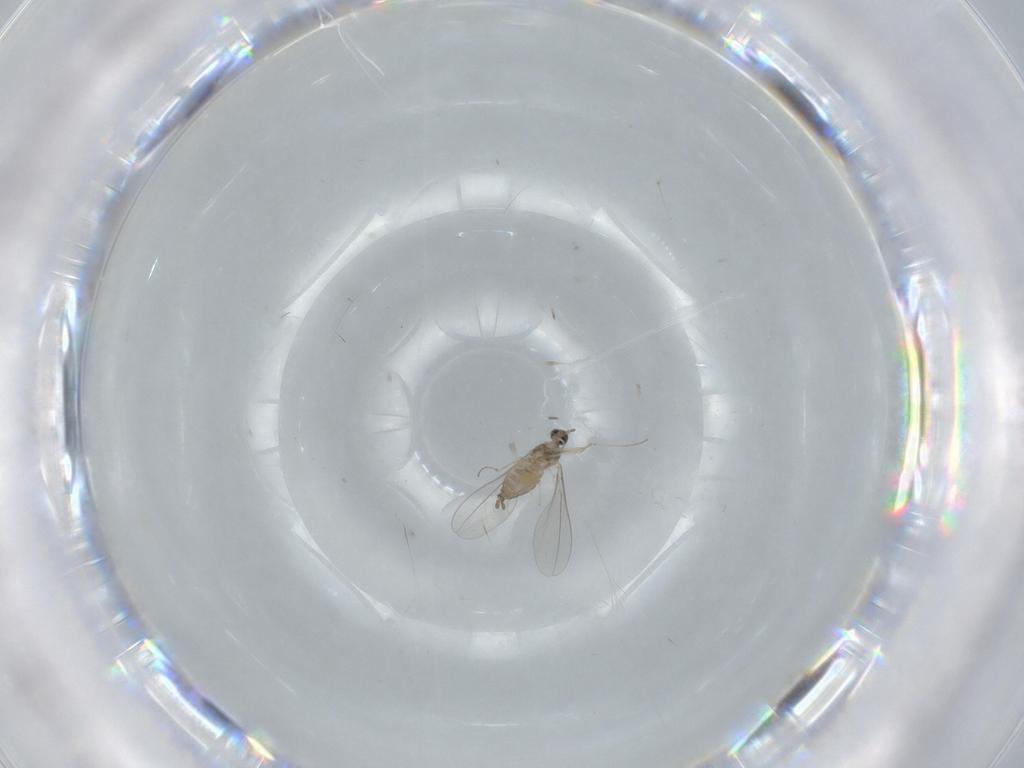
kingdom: Animalia
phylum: Arthropoda
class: Insecta
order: Diptera
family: Cecidomyiidae
